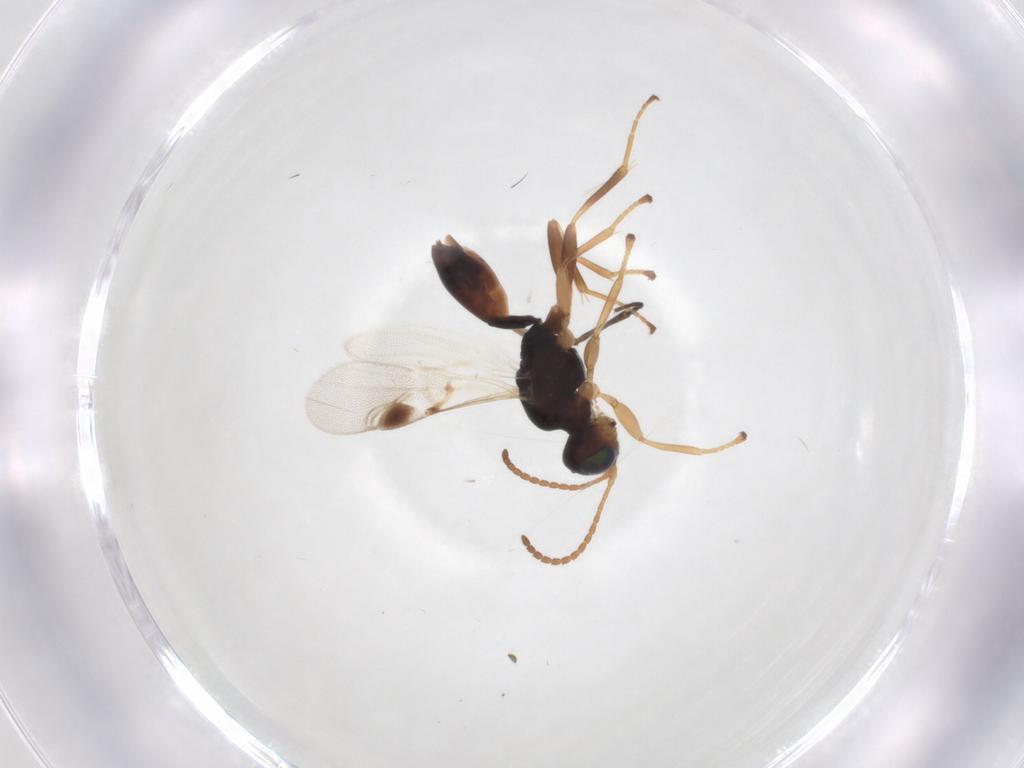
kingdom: Animalia
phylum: Arthropoda
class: Insecta
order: Hymenoptera
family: Braconidae
